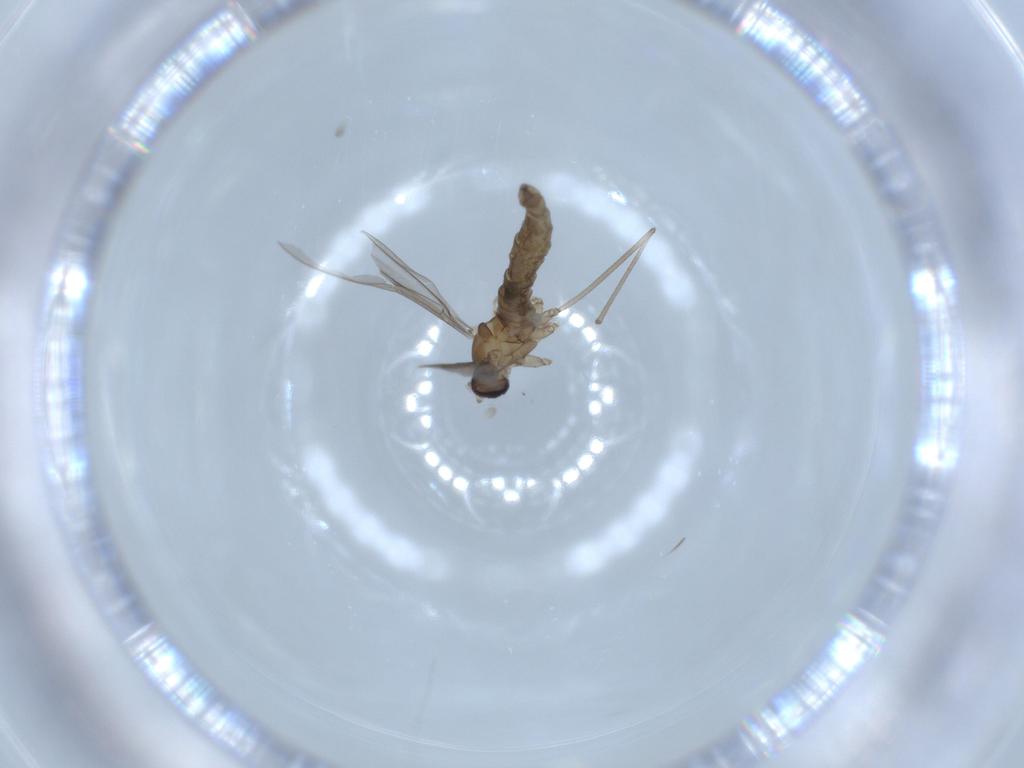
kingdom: Animalia
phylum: Arthropoda
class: Insecta
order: Diptera
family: Cecidomyiidae
